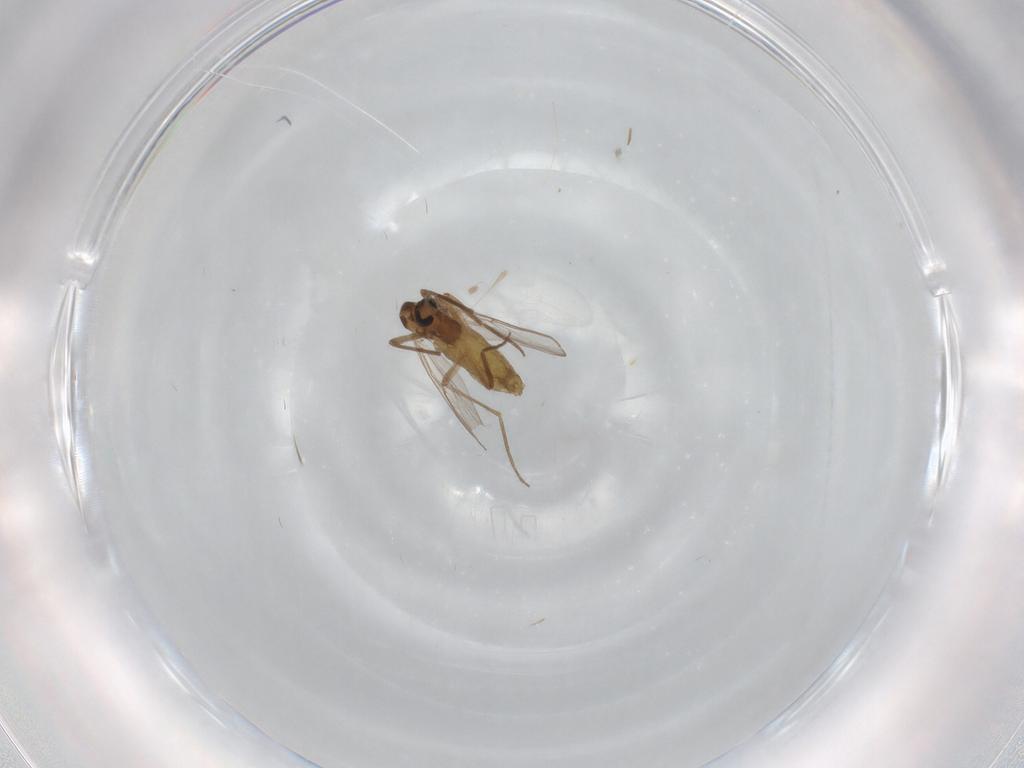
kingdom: Animalia
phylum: Arthropoda
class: Insecta
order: Diptera
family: Chironomidae
